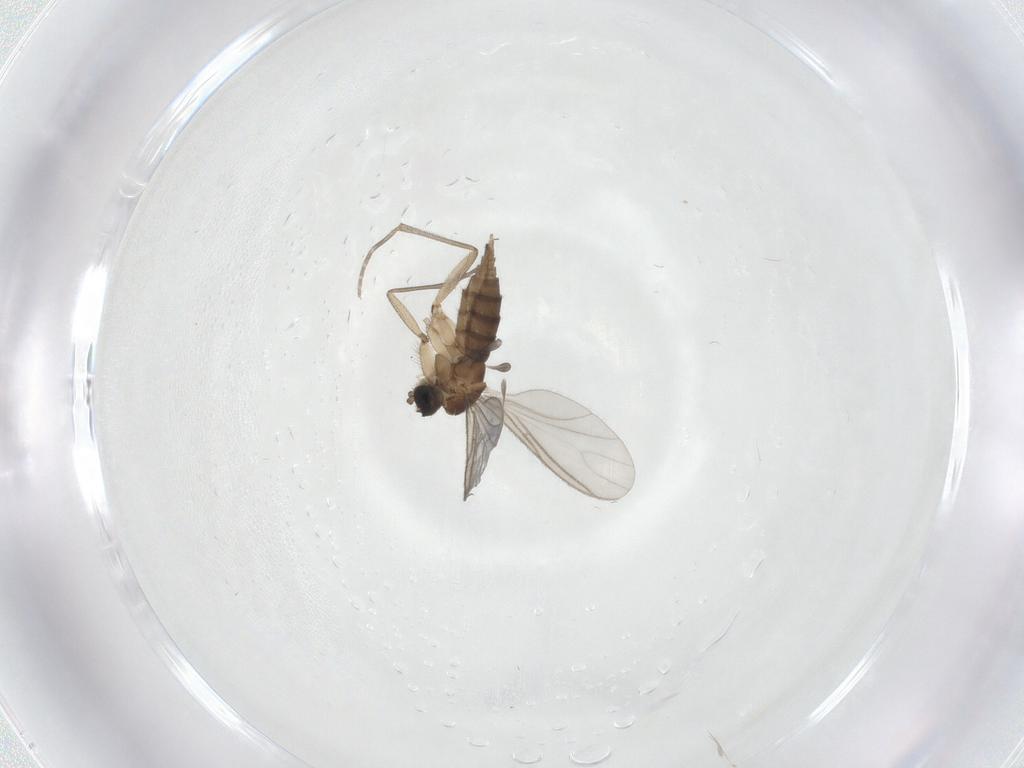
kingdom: Animalia
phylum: Arthropoda
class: Insecta
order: Diptera
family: Sciaridae
